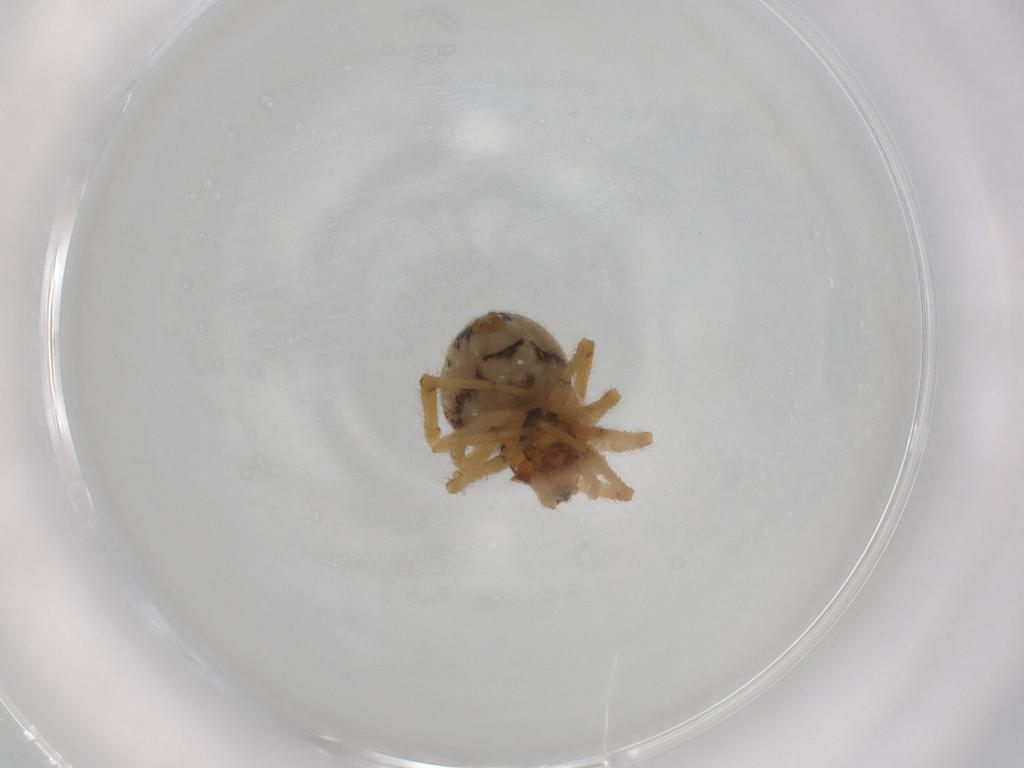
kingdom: Animalia
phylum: Arthropoda
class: Arachnida
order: Araneae
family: Theridiidae
